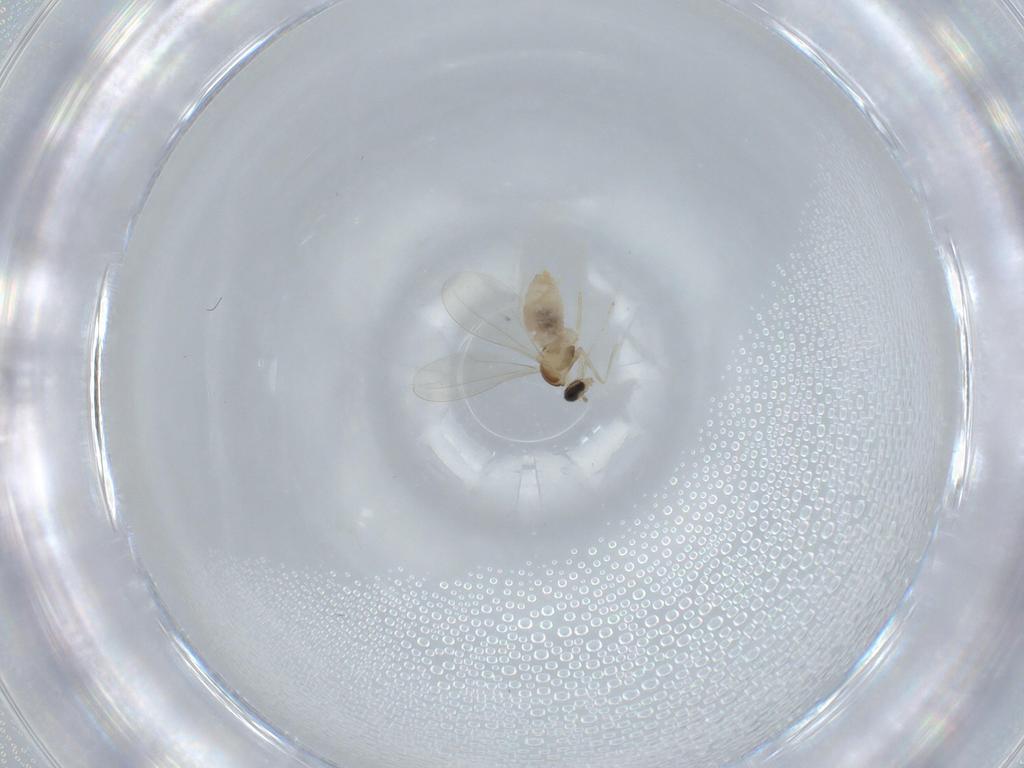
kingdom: Animalia
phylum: Arthropoda
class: Insecta
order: Diptera
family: Cecidomyiidae
